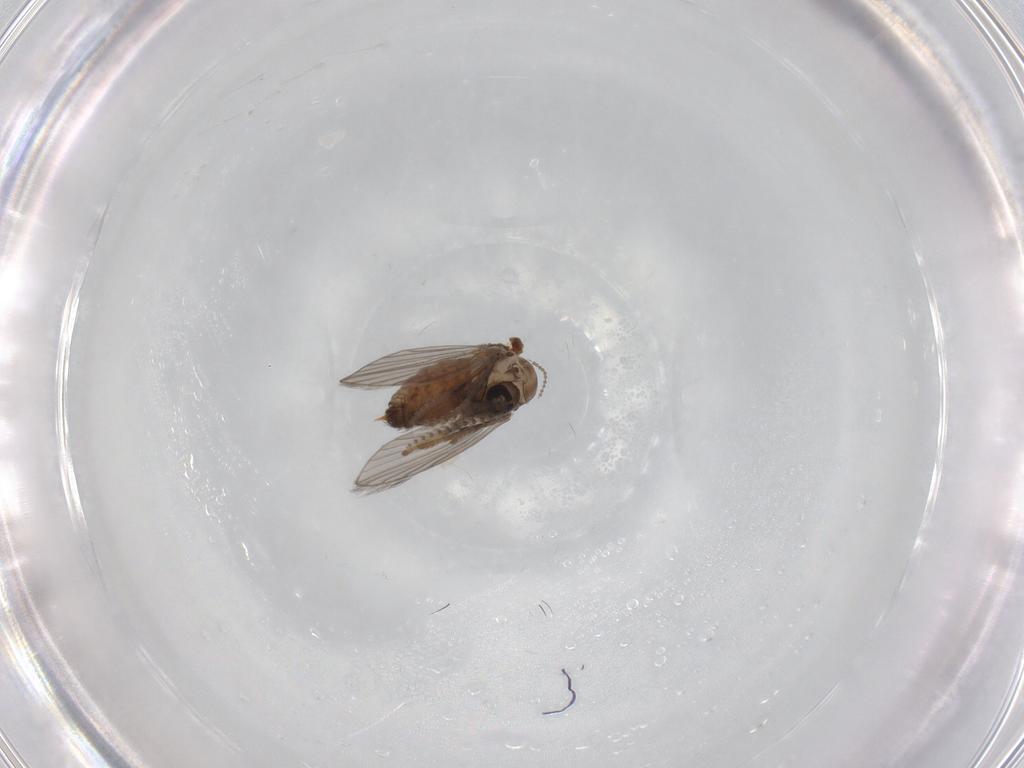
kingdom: Animalia
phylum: Arthropoda
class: Insecta
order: Diptera
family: Psychodidae
